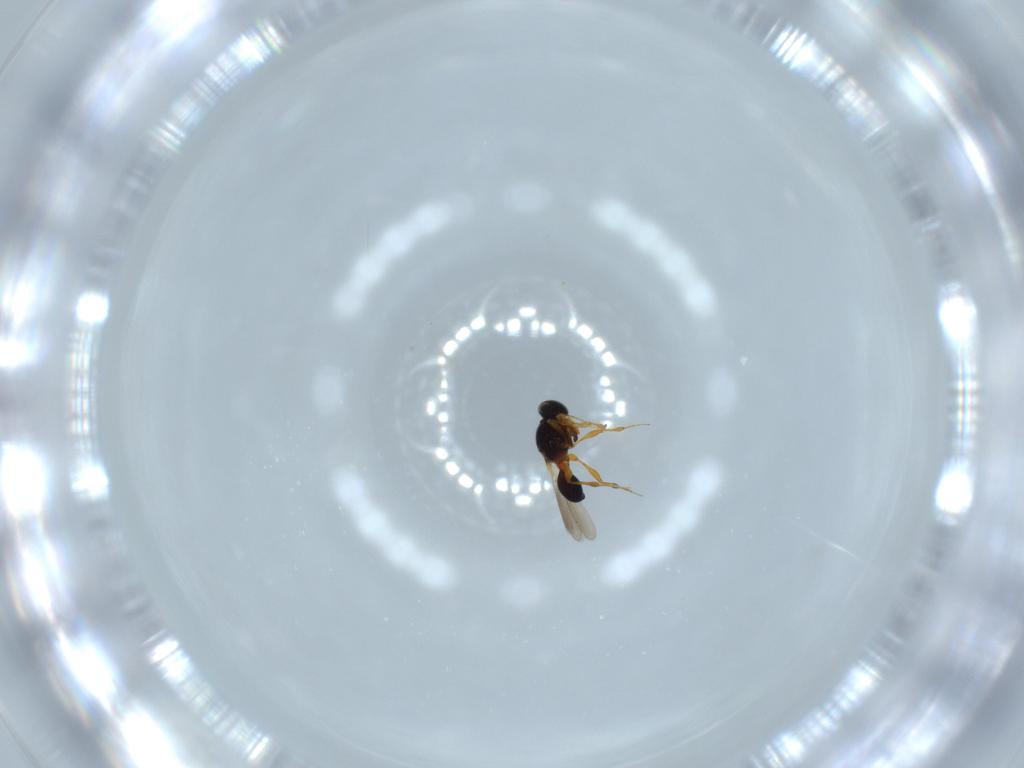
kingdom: Animalia
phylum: Arthropoda
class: Insecta
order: Hymenoptera
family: Platygastridae
